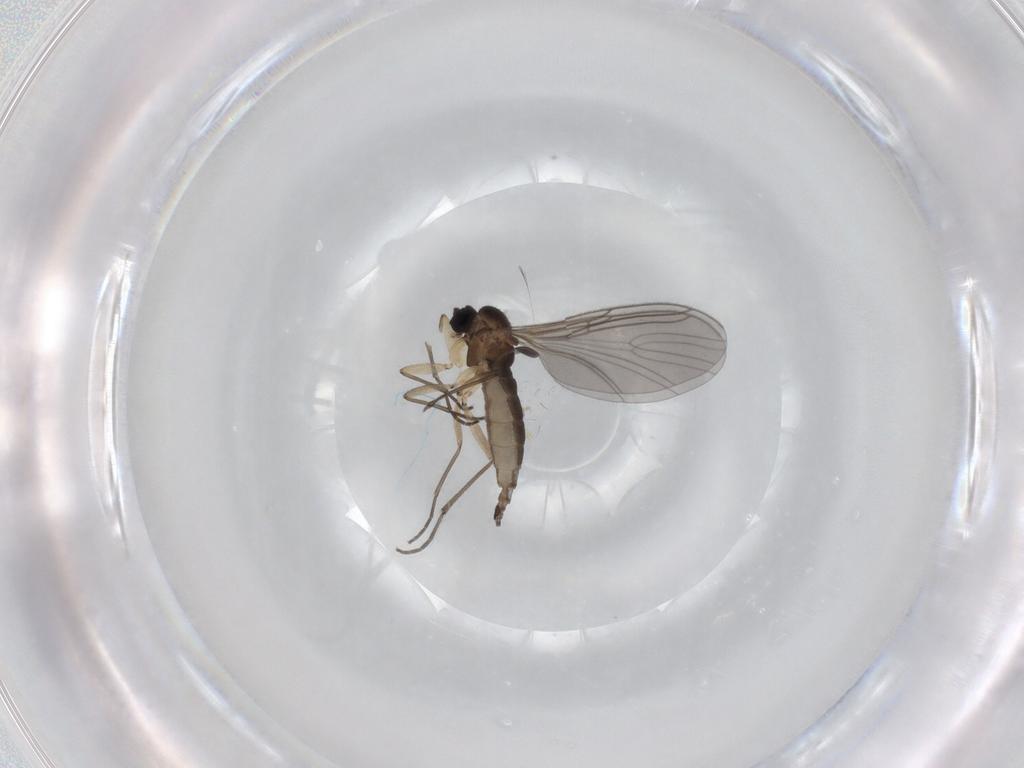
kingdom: Animalia
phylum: Arthropoda
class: Insecta
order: Diptera
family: Sciaridae
